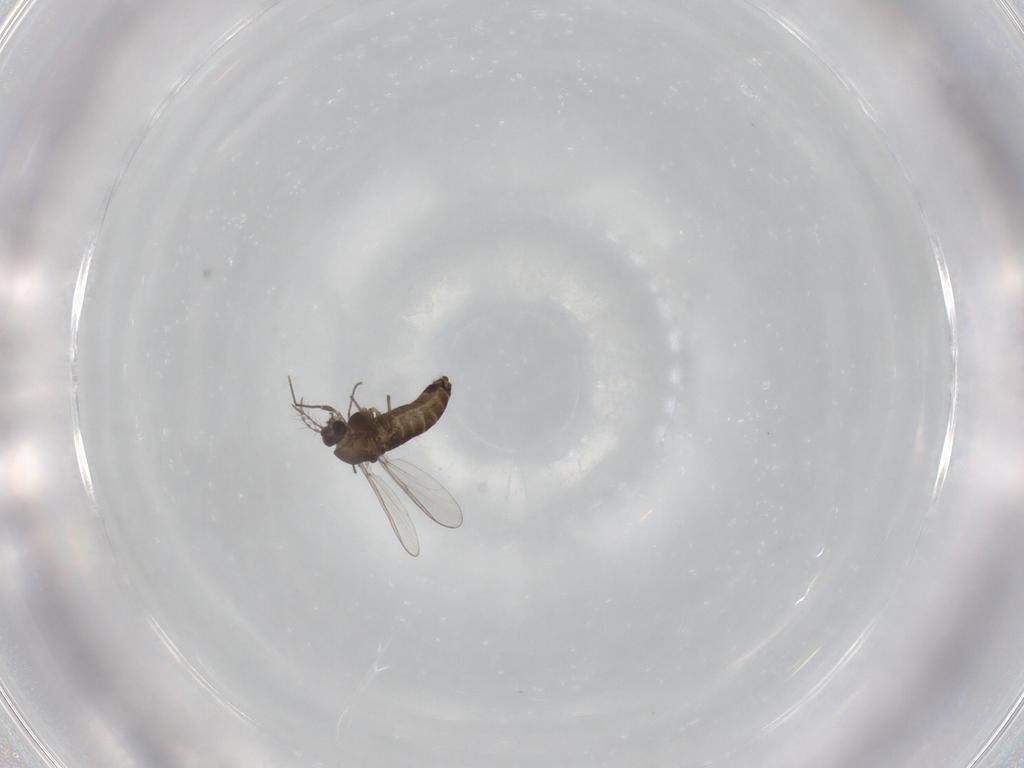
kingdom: Animalia
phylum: Arthropoda
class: Insecta
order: Diptera
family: Chironomidae
